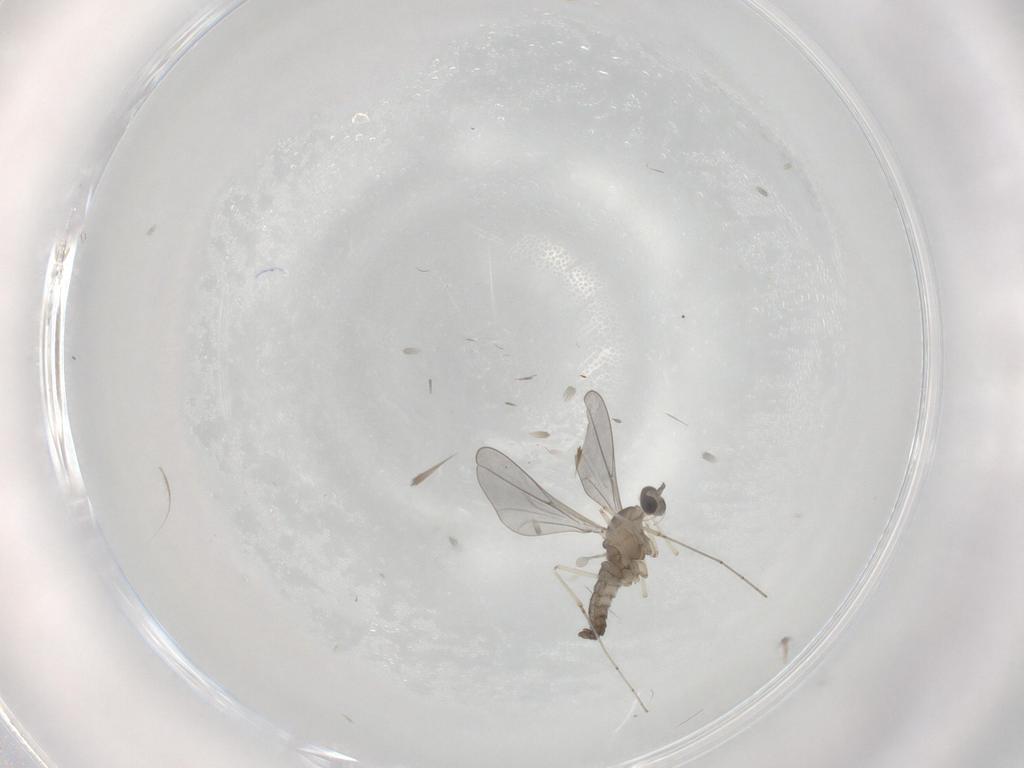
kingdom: Animalia
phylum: Arthropoda
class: Insecta
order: Diptera
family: Cecidomyiidae
